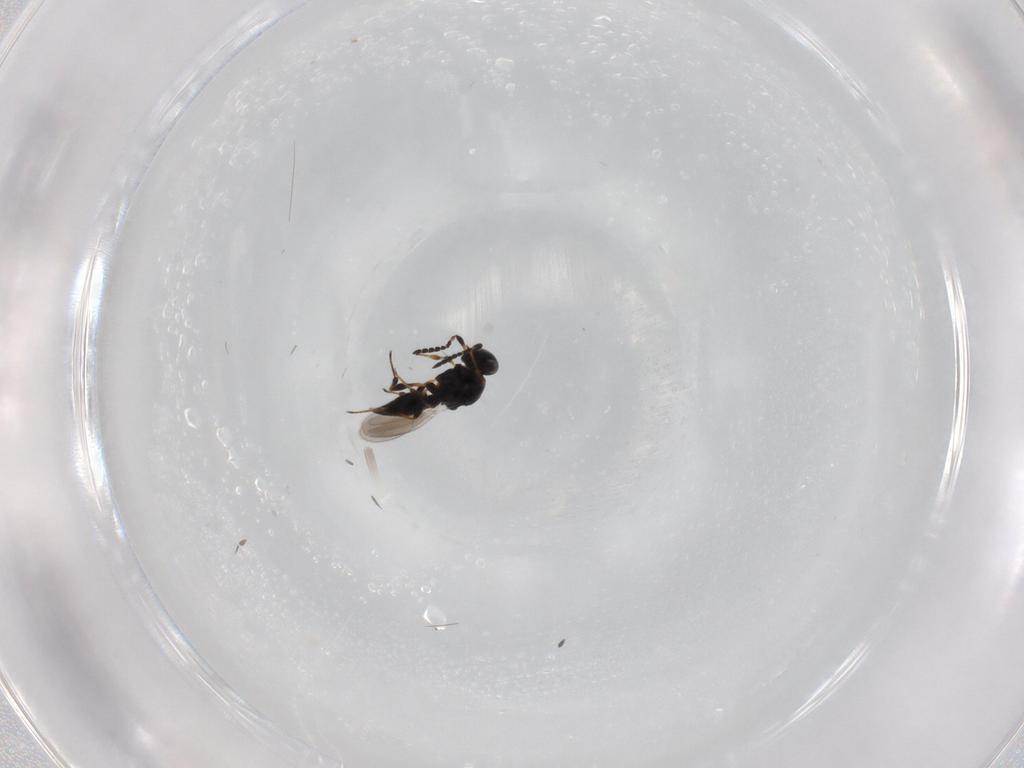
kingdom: Animalia
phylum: Arthropoda
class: Insecta
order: Hymenoptera
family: Platygastridae
